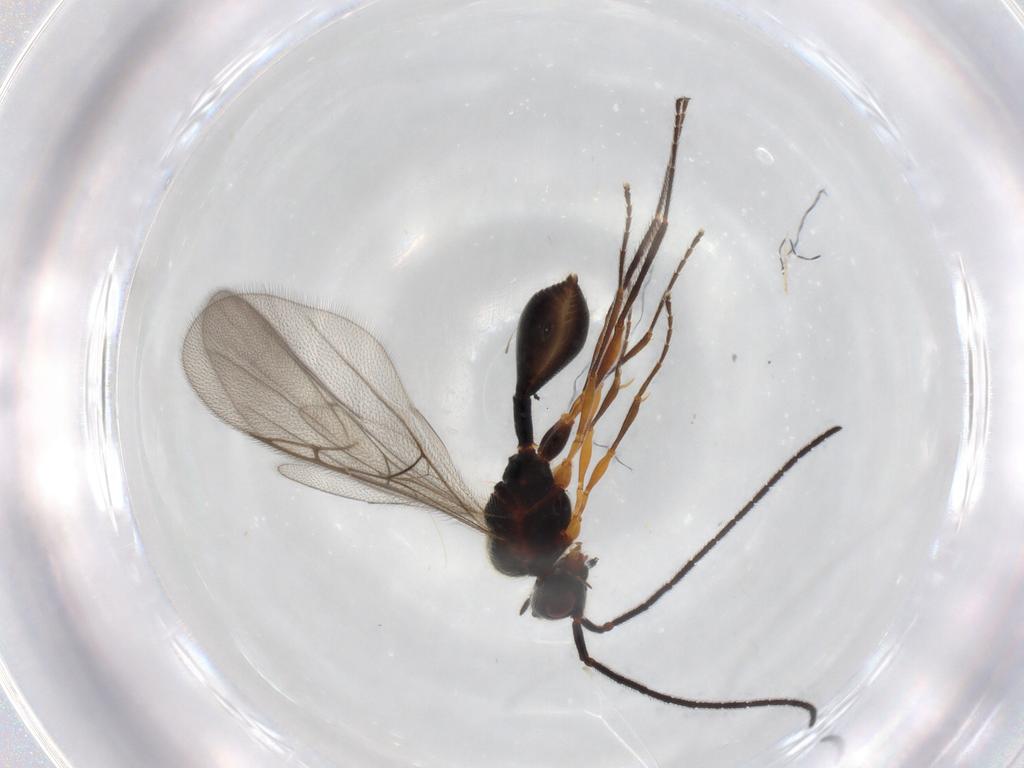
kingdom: Animalia
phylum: Arthropoda
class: Insecta
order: Hymenoptera
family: Diapriidae
